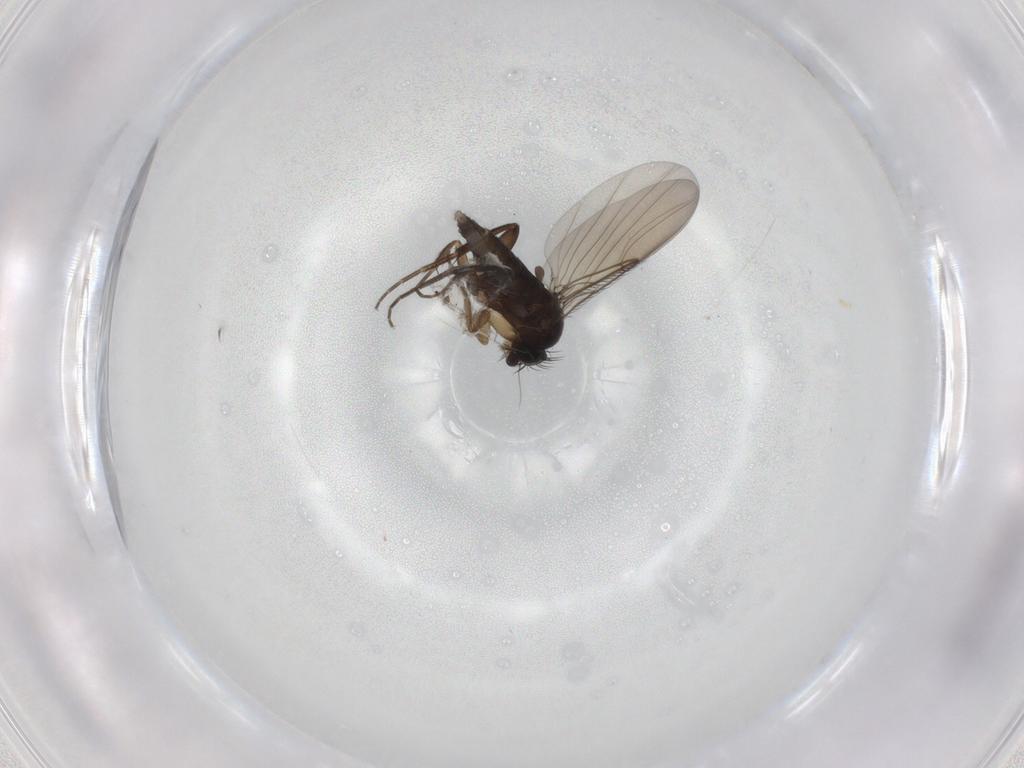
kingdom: Animalia
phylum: Arthropoda
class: Insecta
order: Diptera
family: Phoridae
